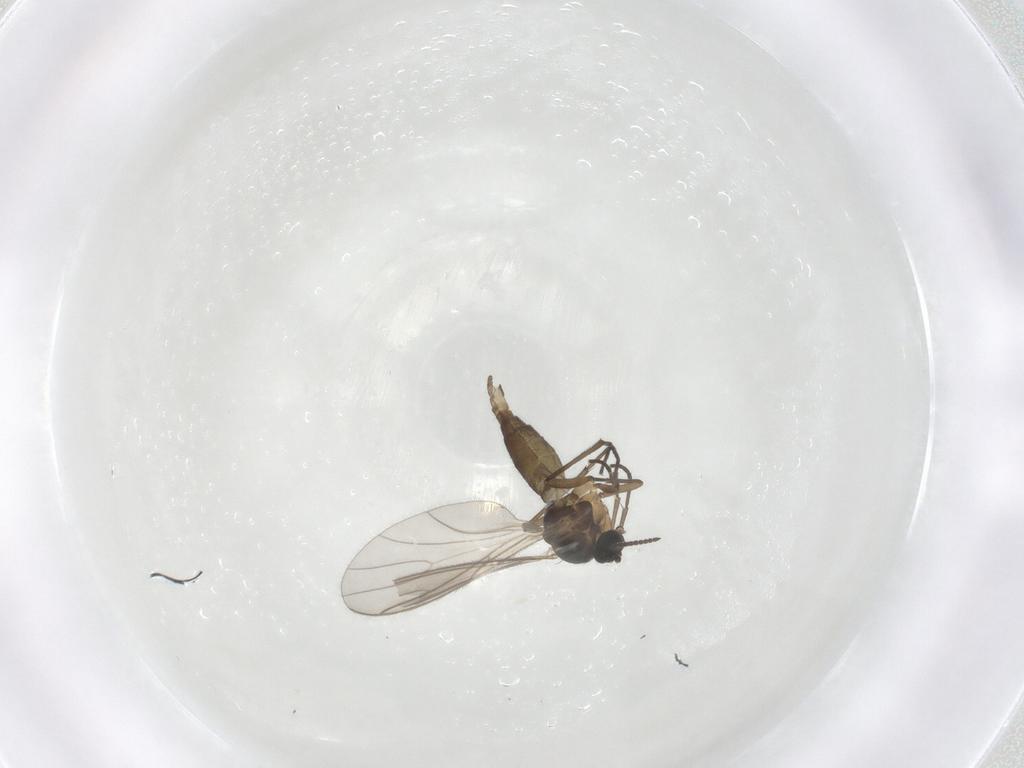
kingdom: Animalia
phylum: Arthropoda
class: Insecta
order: Diptera
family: Sciaridae
